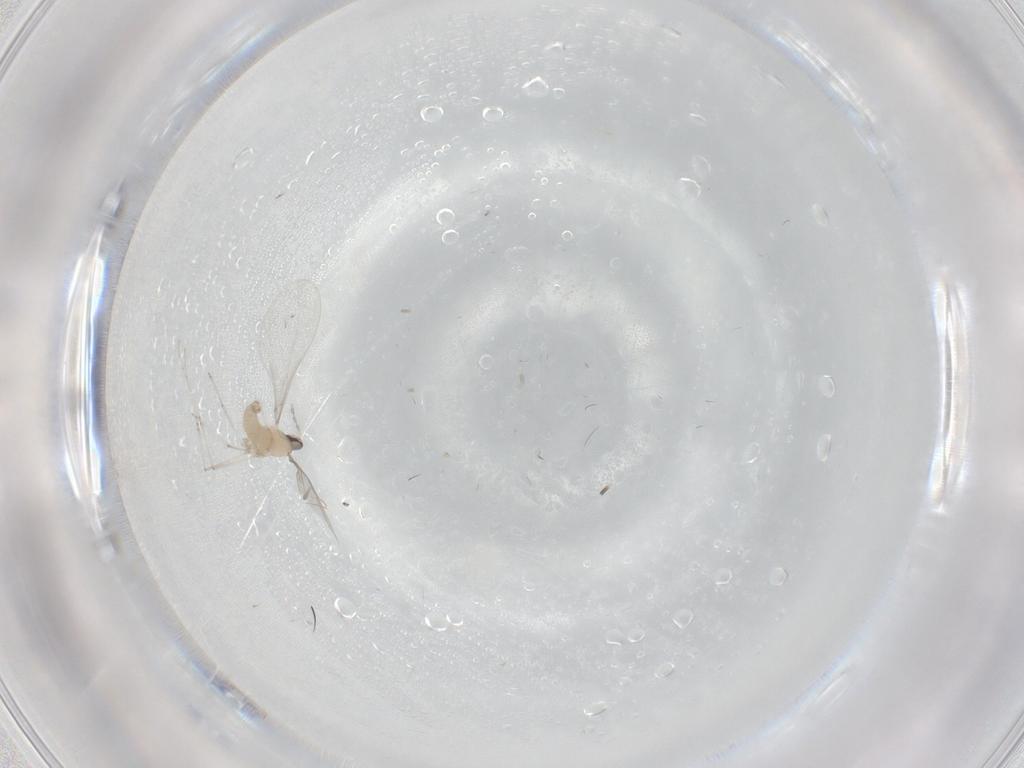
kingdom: Animalia
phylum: Arthropoda
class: Insecta
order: Diptera
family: Cecidomyiidae
